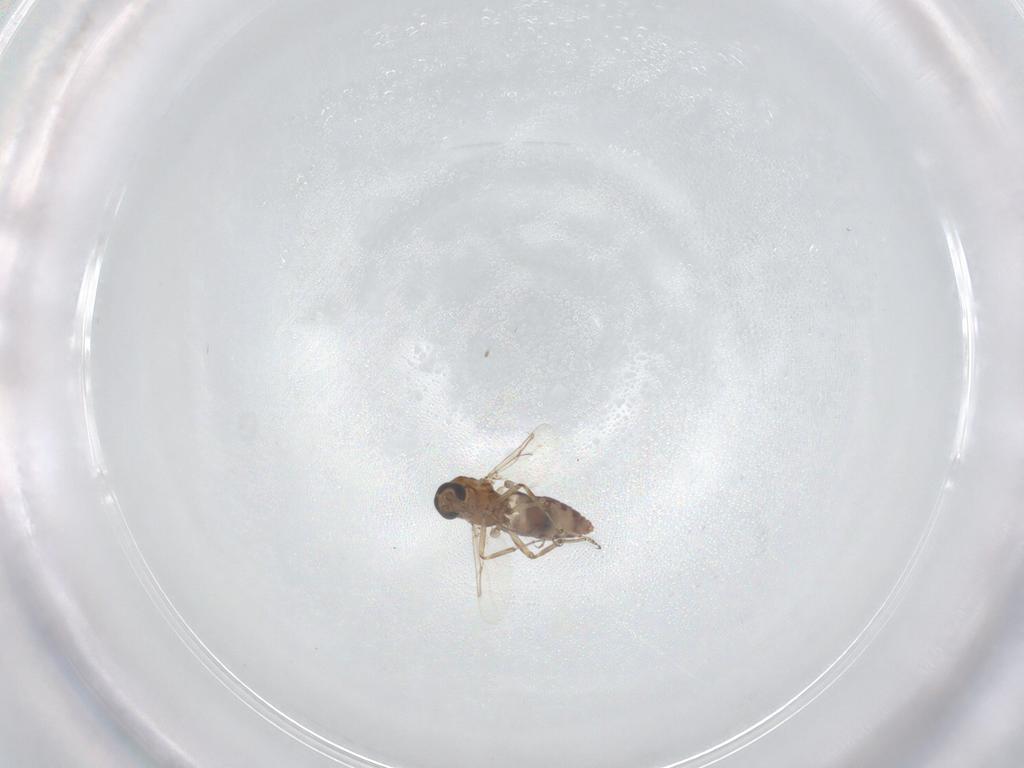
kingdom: Animalia
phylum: Arthropoda
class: Insecta
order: Diptera
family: Ceratopogonidae
